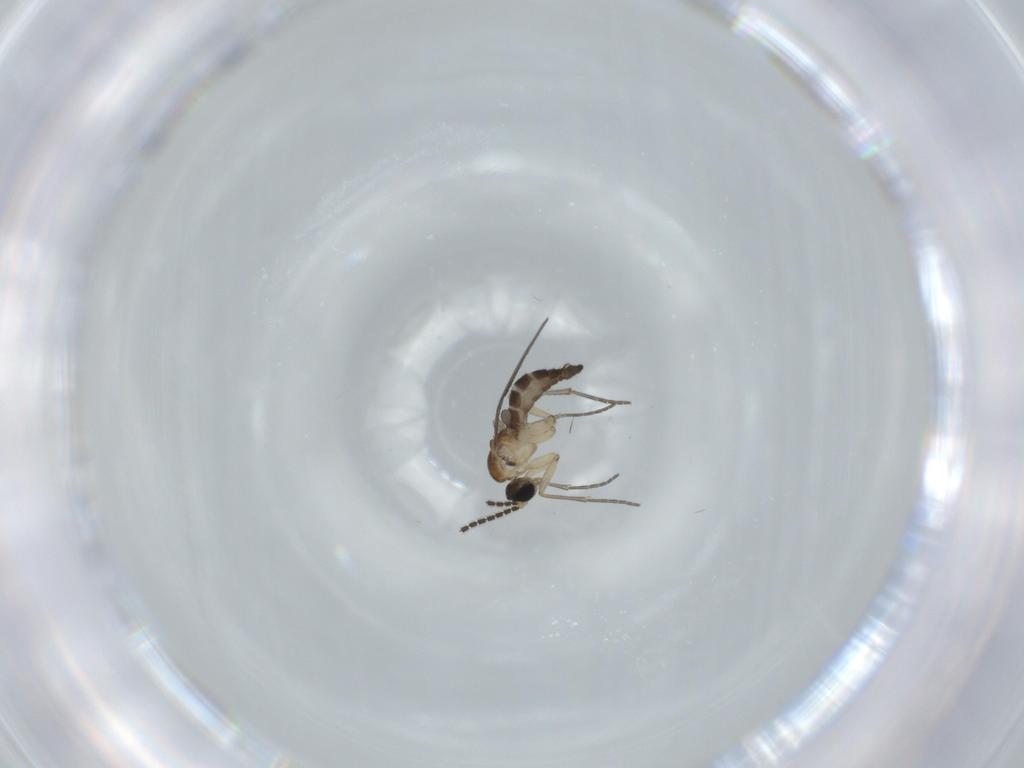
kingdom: Animalia
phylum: Arthropoda
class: Insecta
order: Diptera
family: Sciaridae
